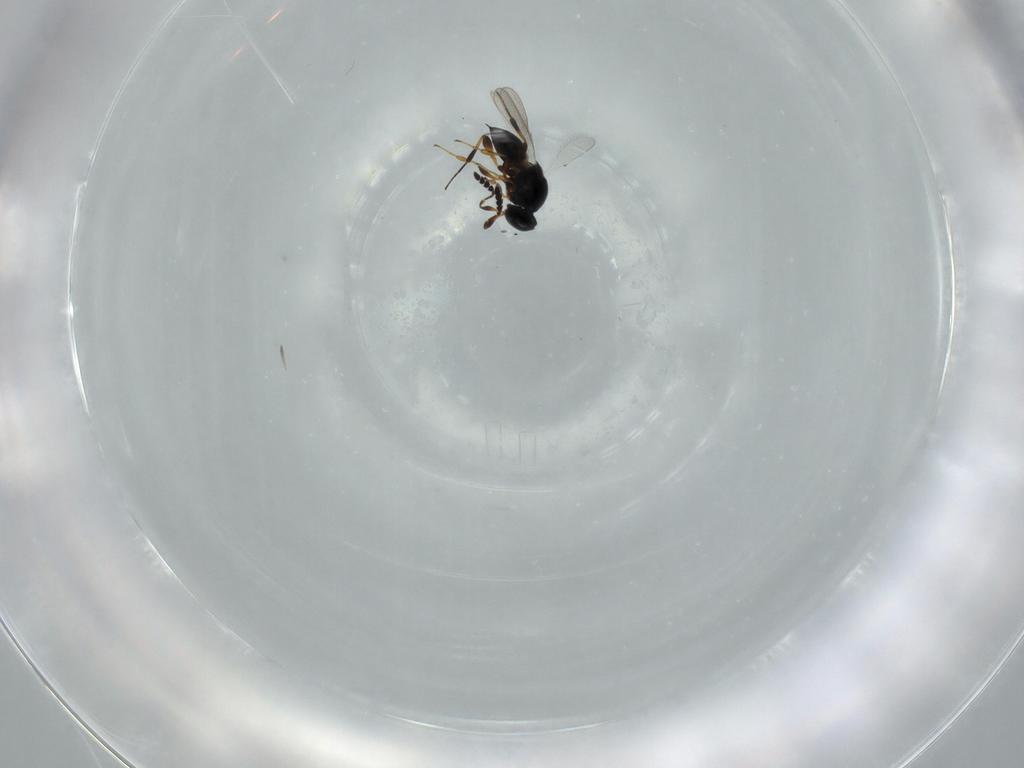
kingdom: Animalia
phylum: Arthropoda
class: Insecta
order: Hymenoptera
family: Platygastridae
